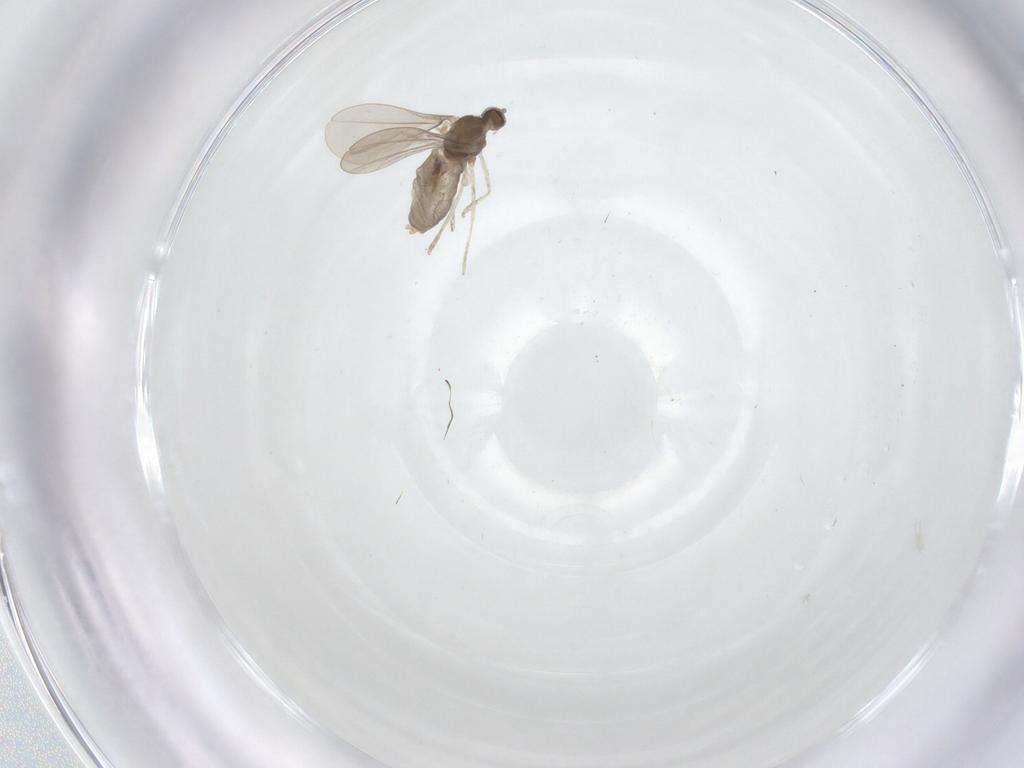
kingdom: Animalia
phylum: Arthropoda
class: Insecta
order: Diptera
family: Cecidomyiidae
